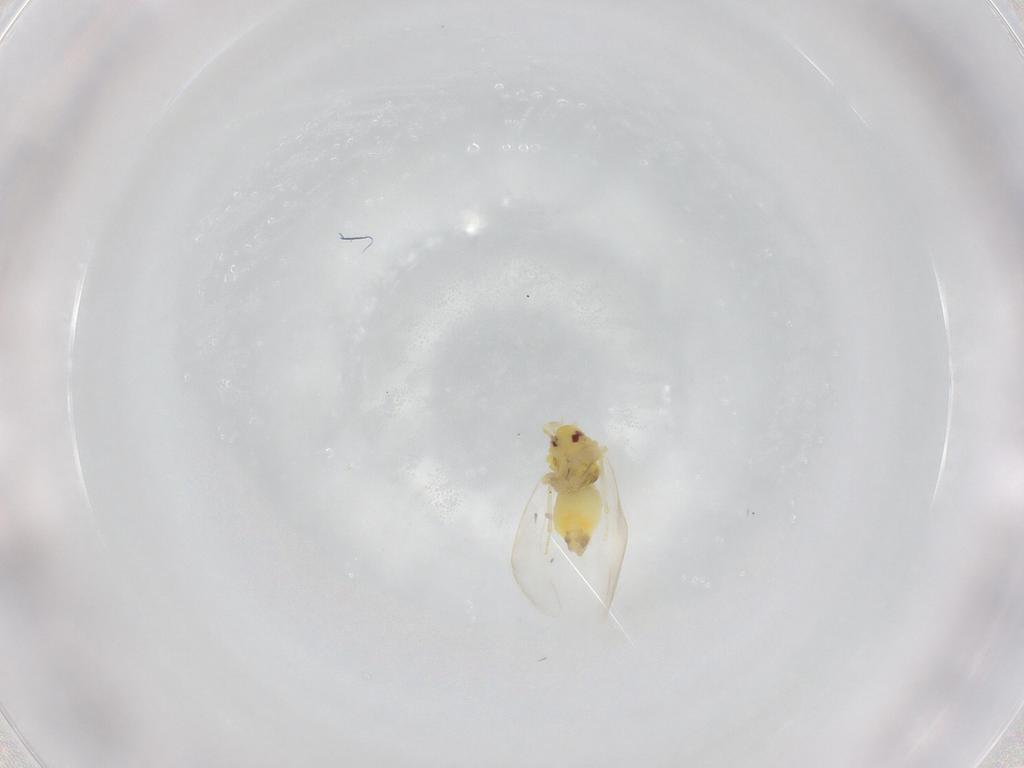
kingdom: Animalia
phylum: Arthropoda
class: Insecta
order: Hemiptera
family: Aleyrodidae
